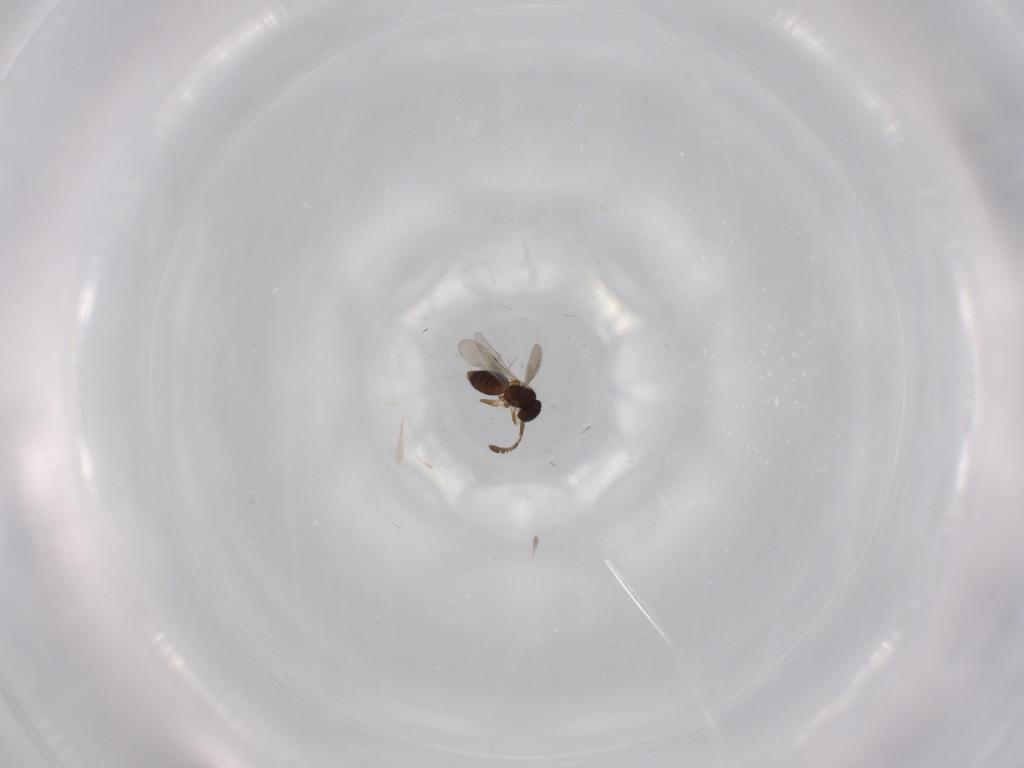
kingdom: Animalia
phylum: Arthropoda
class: Insecta
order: Hymenoptera
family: Ceraphronidae
